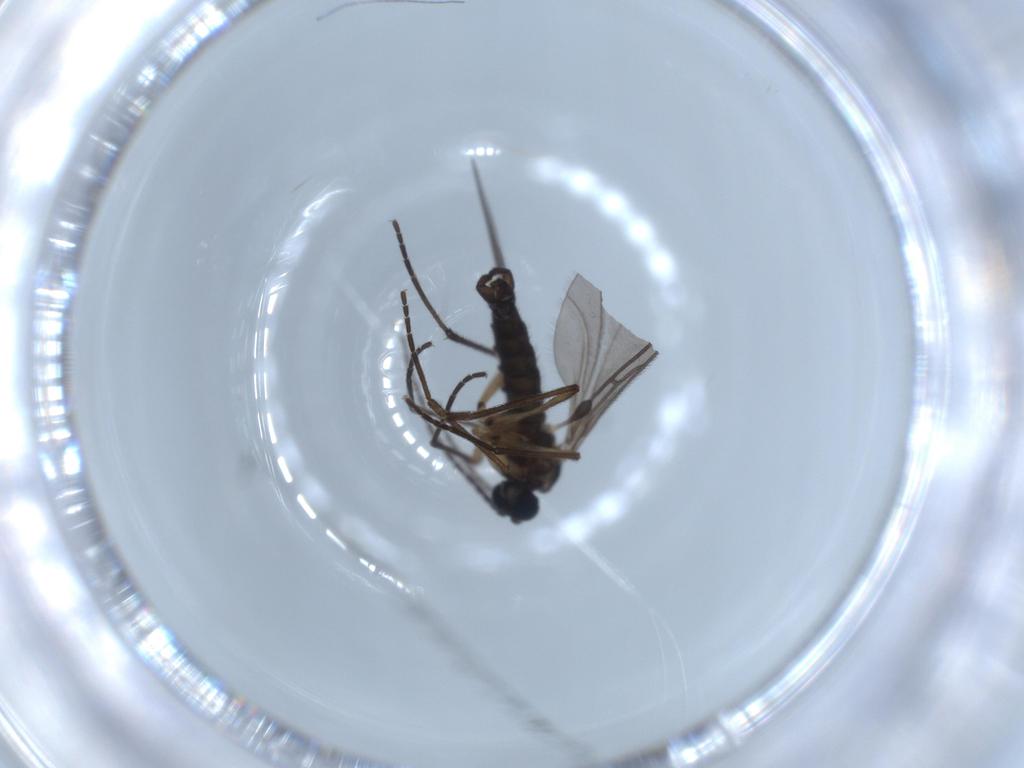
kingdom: Animalia
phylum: Arthropoda
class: Insecta
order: Diptera
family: Sciaridae
